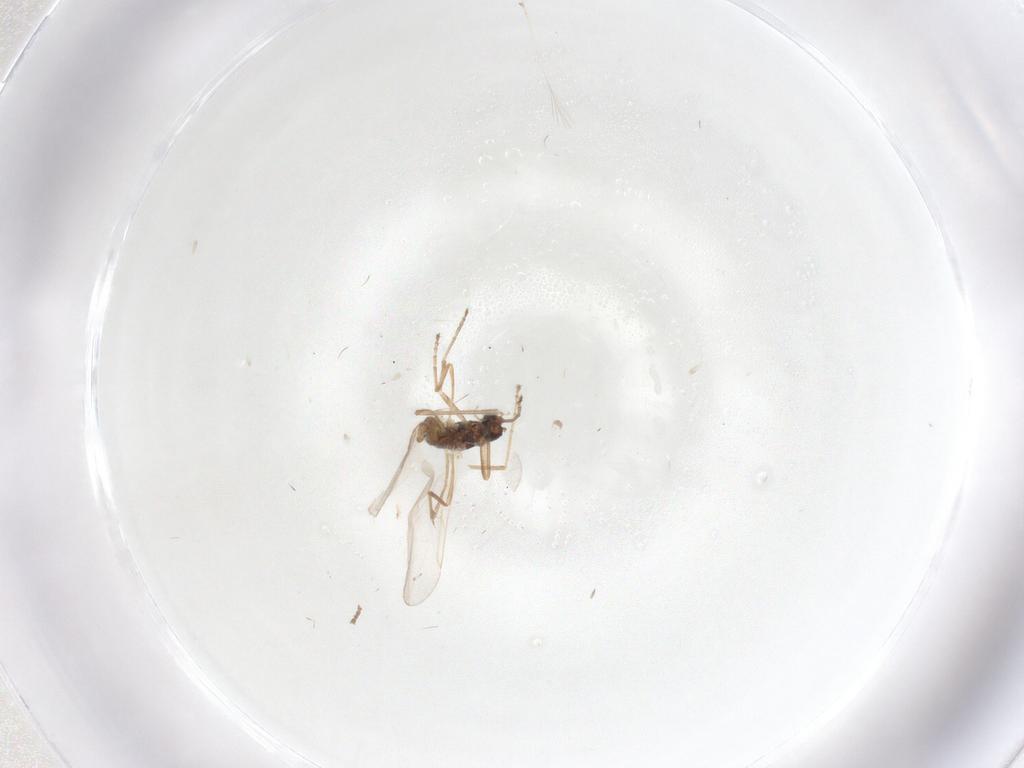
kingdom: Animalia
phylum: Arthropoda
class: Insecta
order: Diptera
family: Cecidomyiidae
